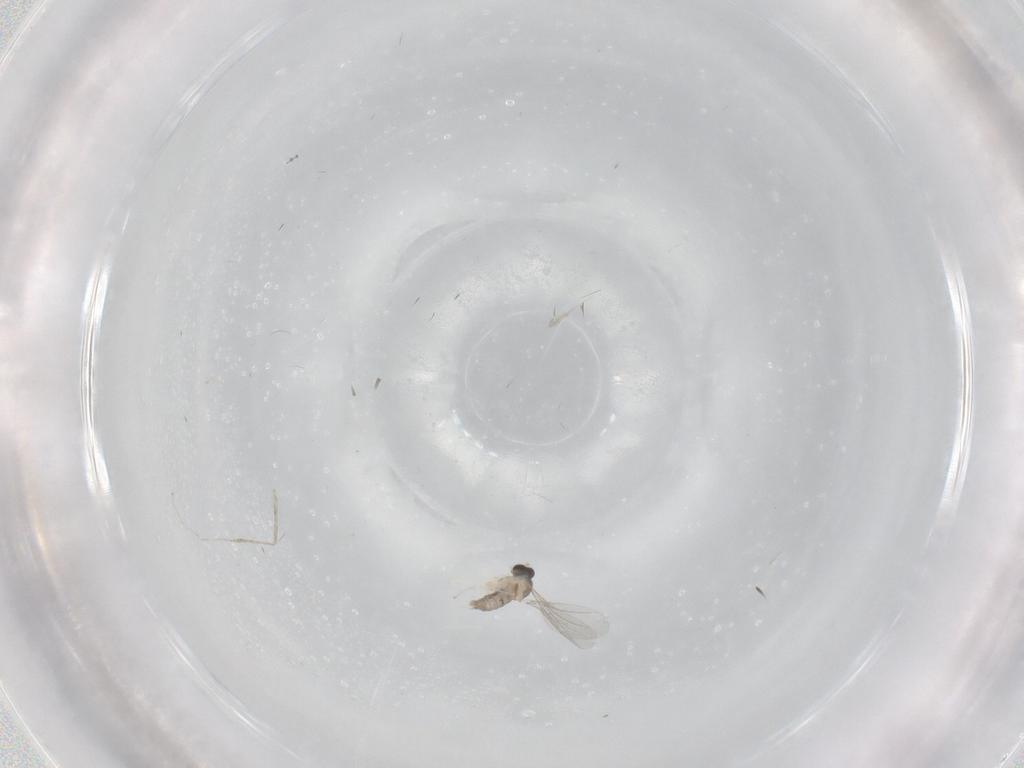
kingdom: Animalia
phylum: Arthropoda
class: Insecta
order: Diptera
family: Cecidomyiidae
